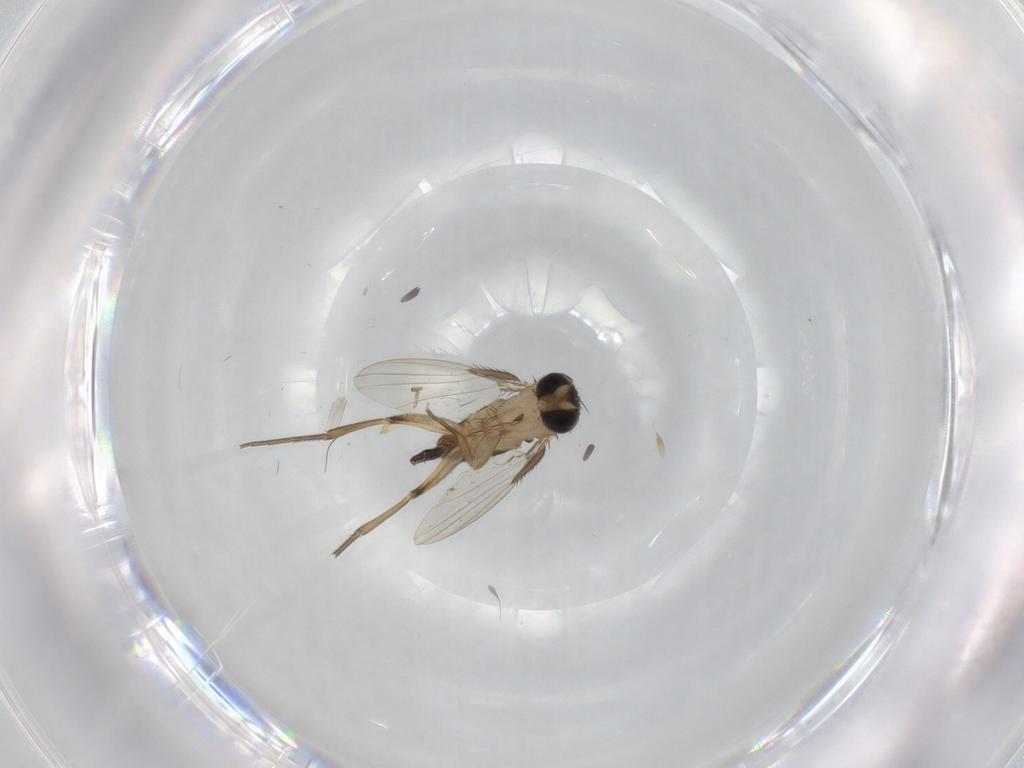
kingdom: Animalia
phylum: Arthropoda
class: Insecta
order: Diptera
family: Phoridae
